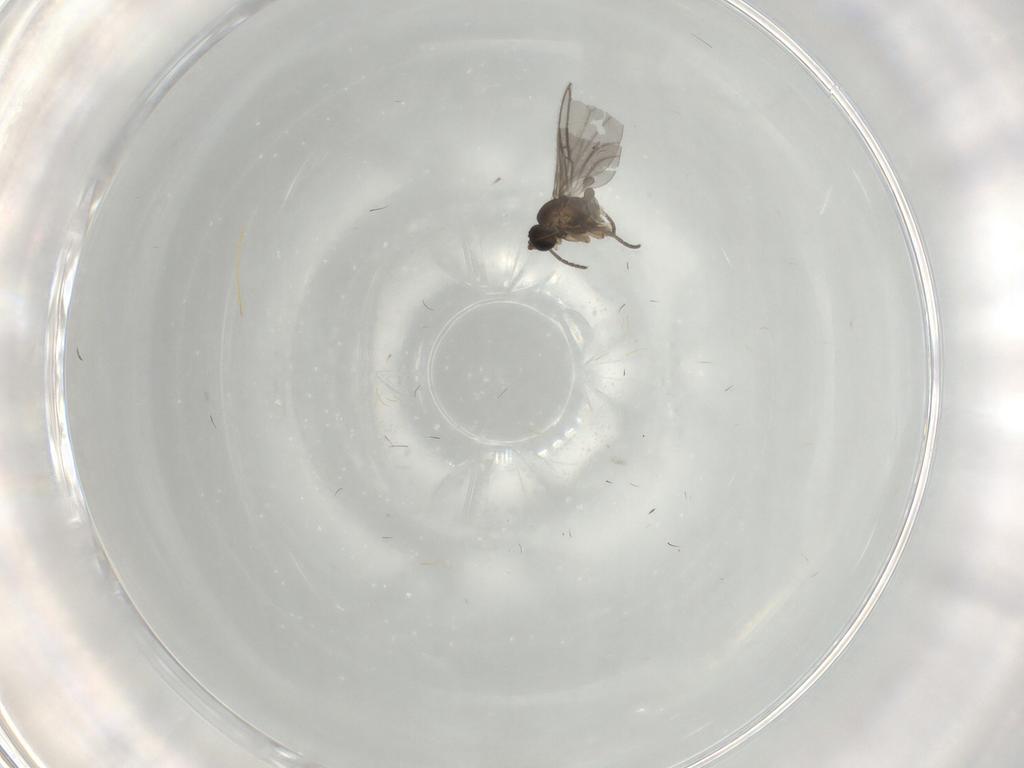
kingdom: Animalia
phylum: Arthropoda
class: Insecta
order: Diptera
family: Sciaridae
